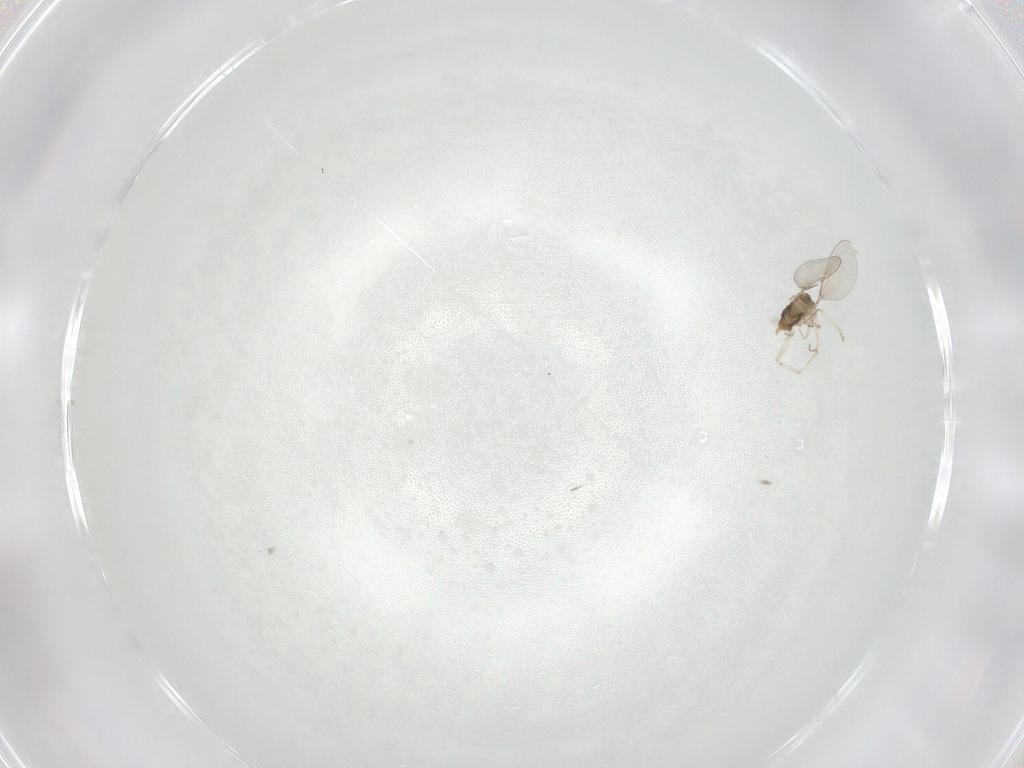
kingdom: Animalia
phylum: Arthropoda
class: Insecta
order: Diptera
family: Cecidomyiidae
